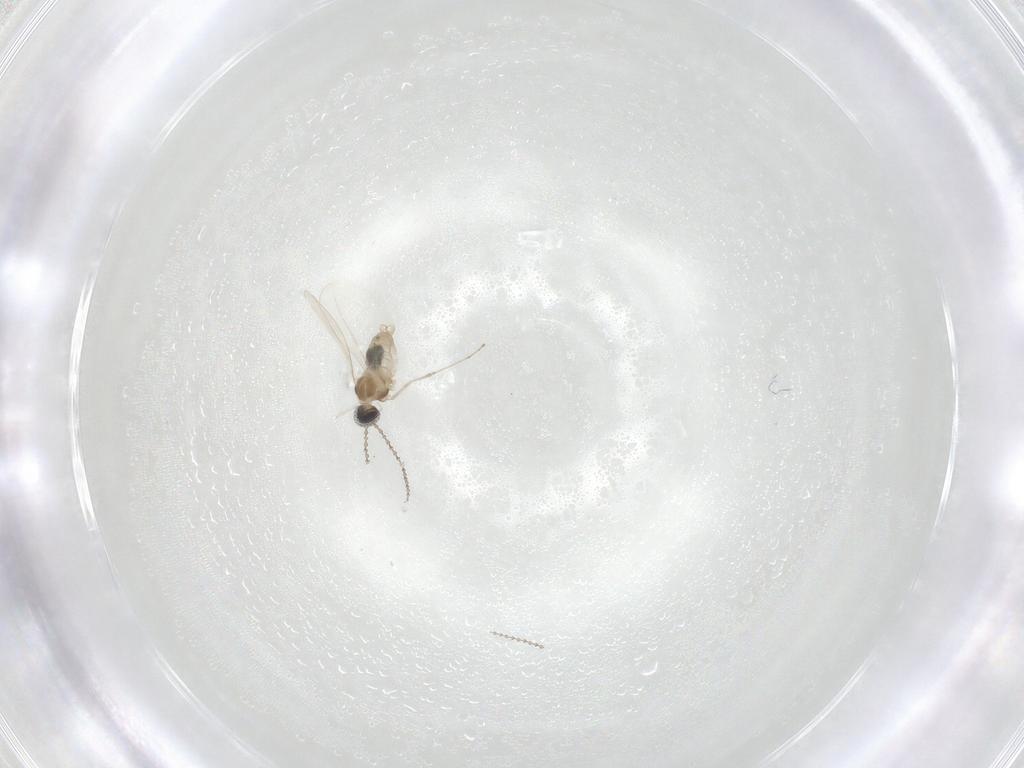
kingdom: Animalia
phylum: Arthropoda
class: Insecta
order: Diptera
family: Cecidomyiidae
